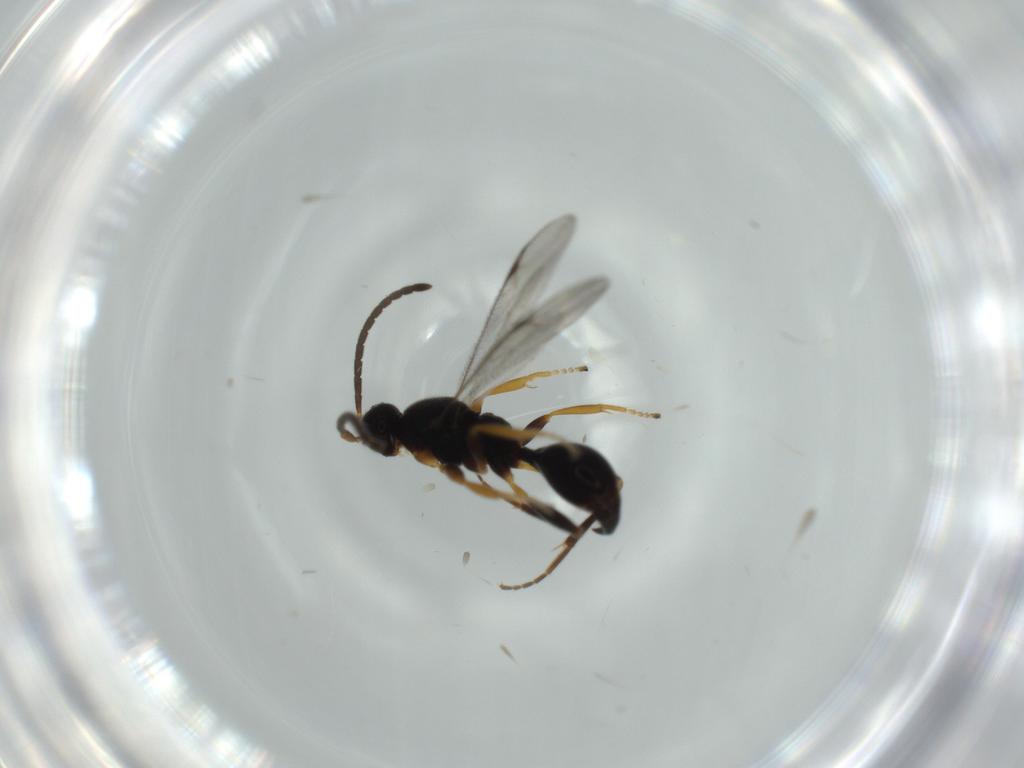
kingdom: Animalia
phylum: Arthropoda
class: Insecta
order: Hymenoptera
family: Proctotrupidae
